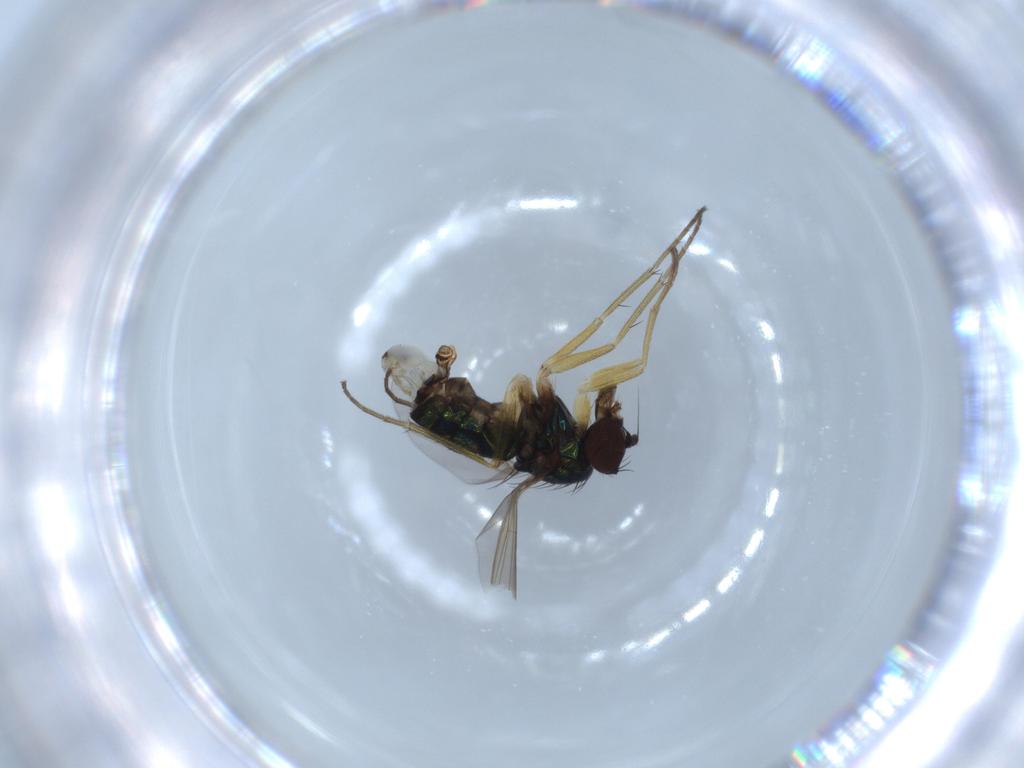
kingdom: Animalia
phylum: Arthropoda
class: Insecta
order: Diptera
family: Dolichopodidae
